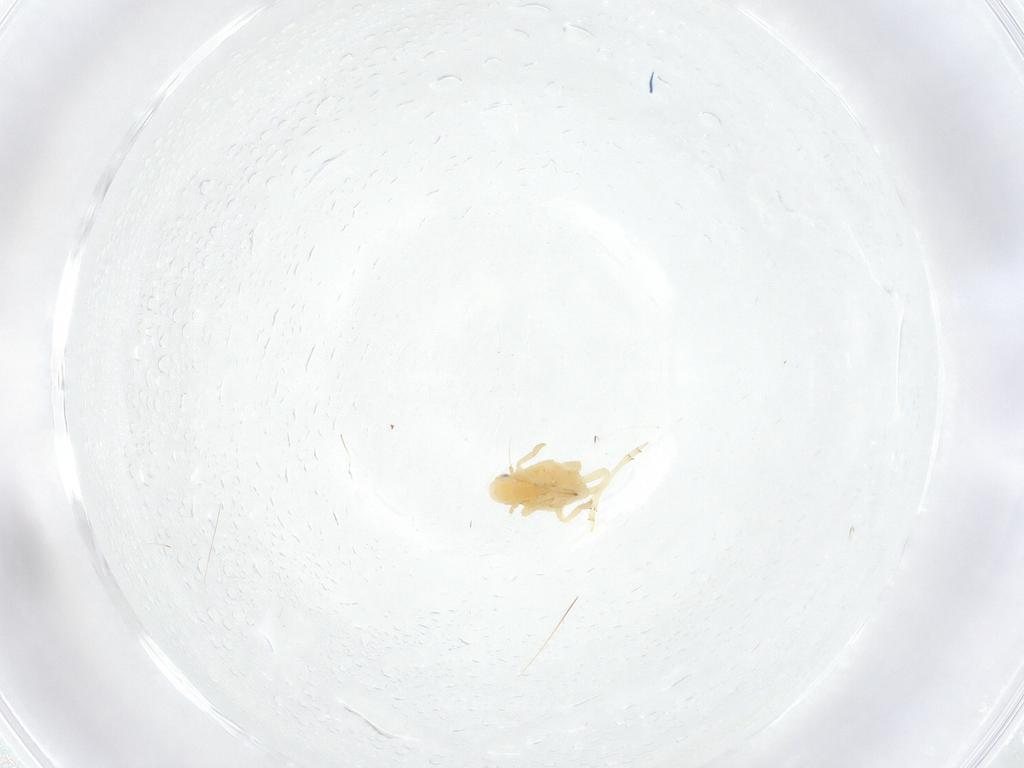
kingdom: Animalia
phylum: Arthropoda
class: Insecta
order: Hemiptera
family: Flatidae
